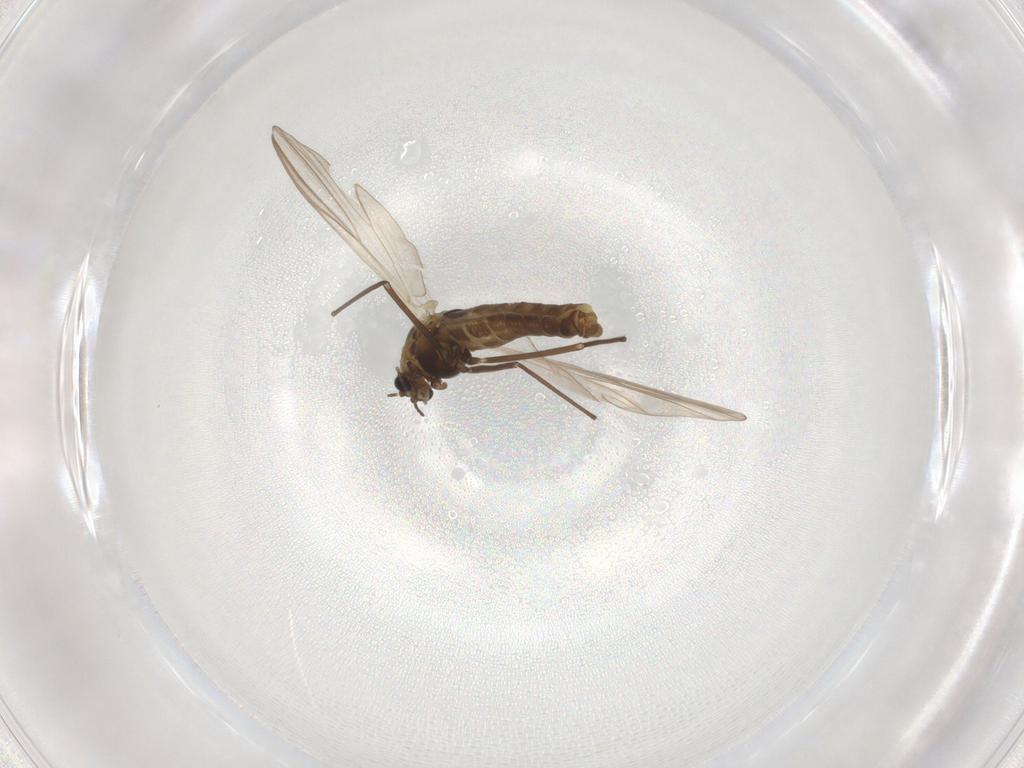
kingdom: Animalia
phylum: Arthropoda
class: Insecta
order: Diptera
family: Chironomidae
